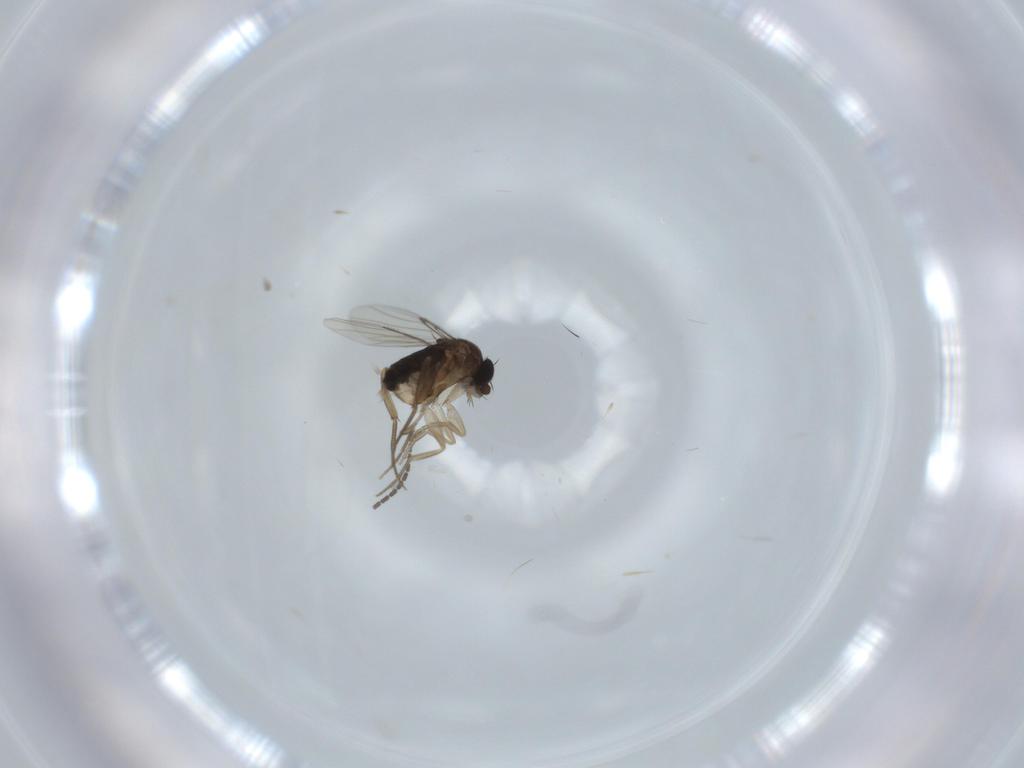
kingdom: Animalia
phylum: Arthropoda
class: Insecta
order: Diptera
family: Phoridae
